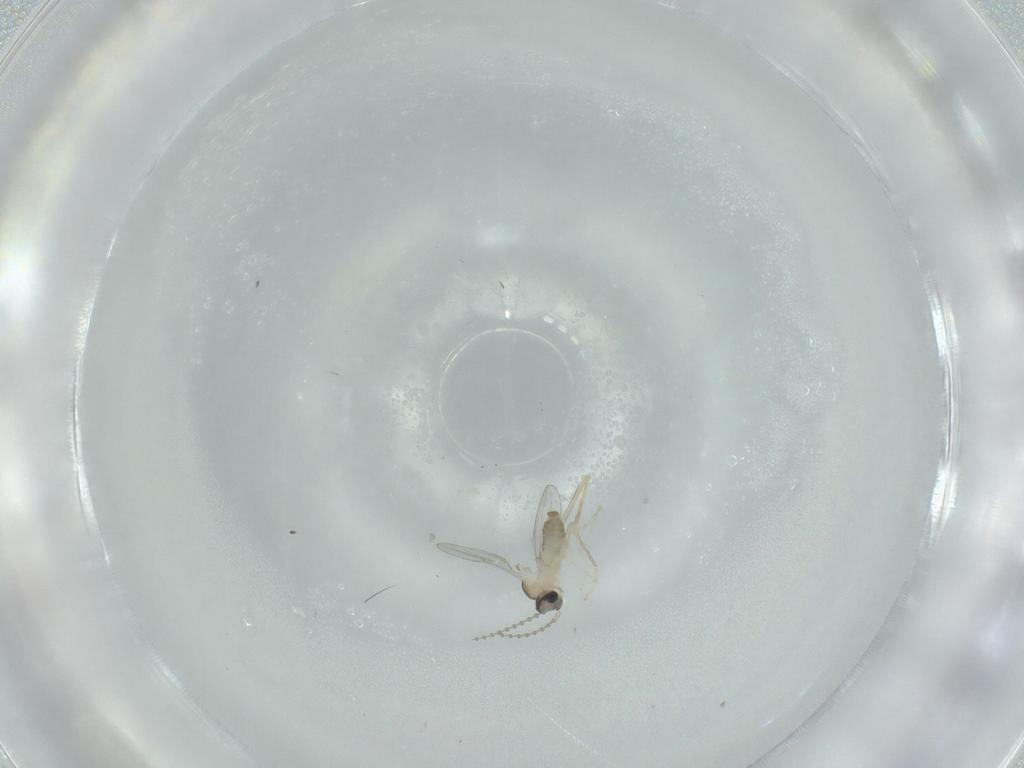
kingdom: Animalia
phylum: Arthropoda
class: Insecta
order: Diptera
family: Cecidomyiidae
